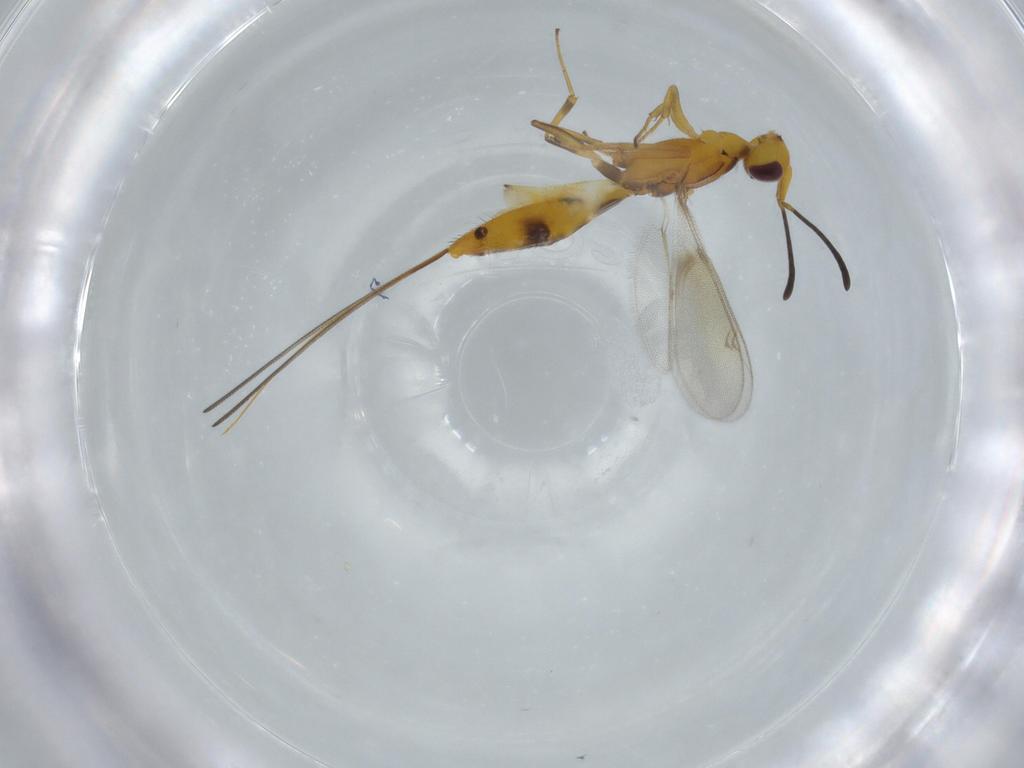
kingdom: Animalia
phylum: Arthropoda
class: Insecta
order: Hymenoptera
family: Eupelmidae
